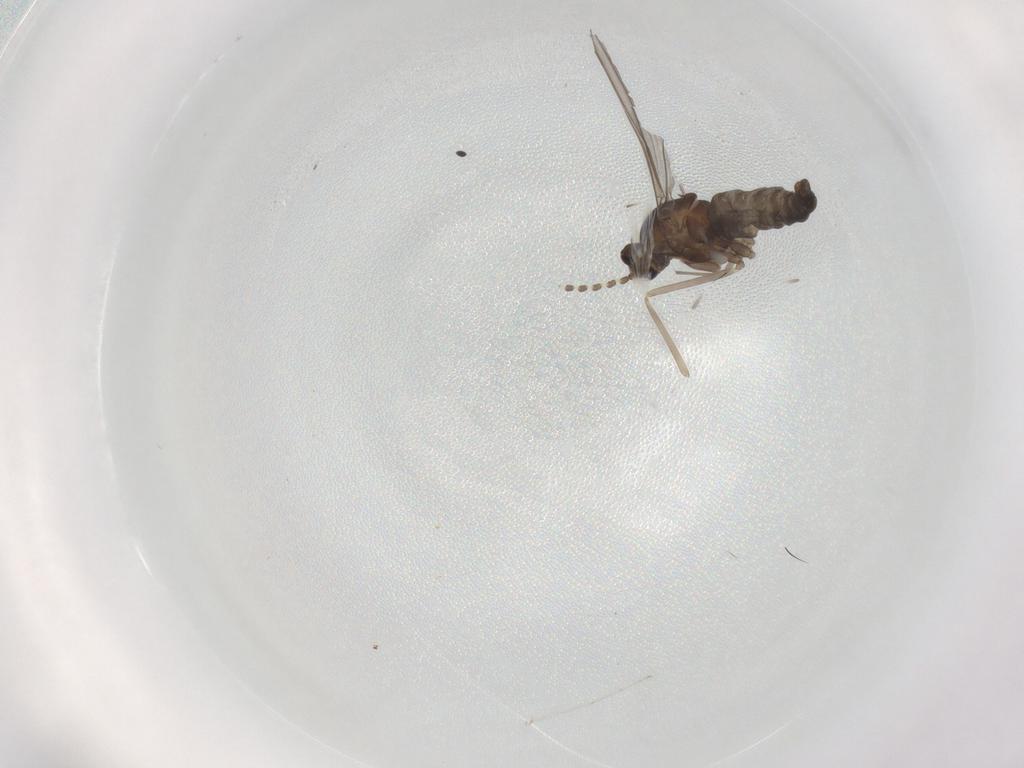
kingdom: Animalia
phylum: Arthropoda
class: Insecta
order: Diptera
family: Cecidomyiidae
